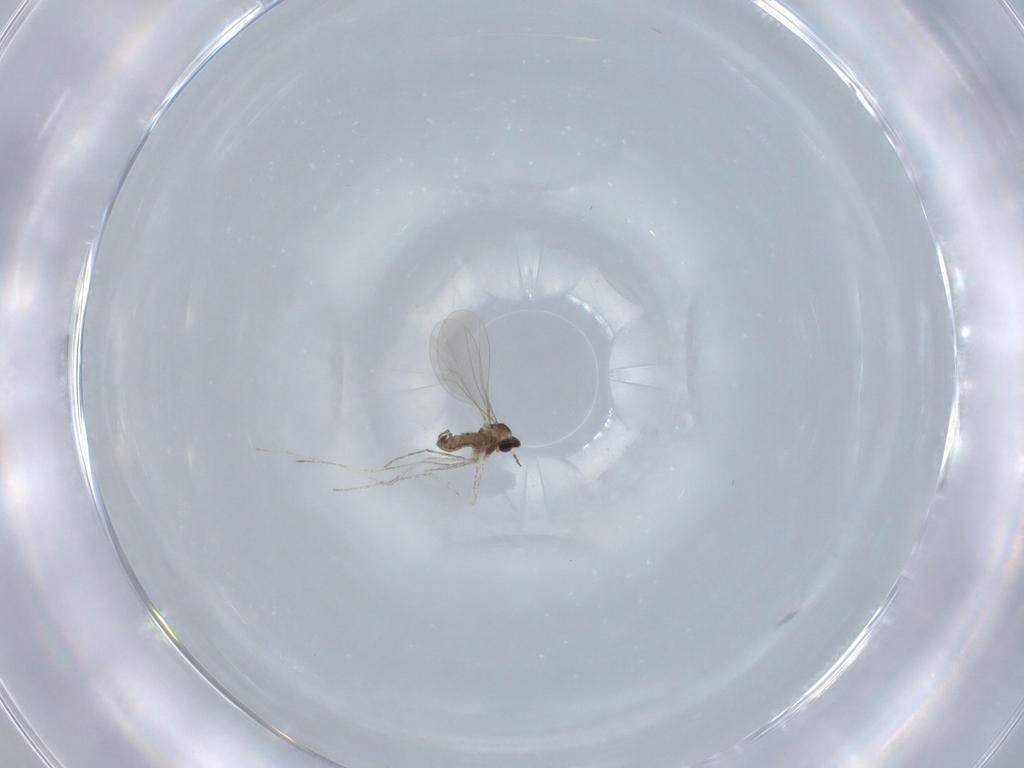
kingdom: Animalia
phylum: Arthropoda
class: Insecta
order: Diptera
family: Cecidomyiidae
